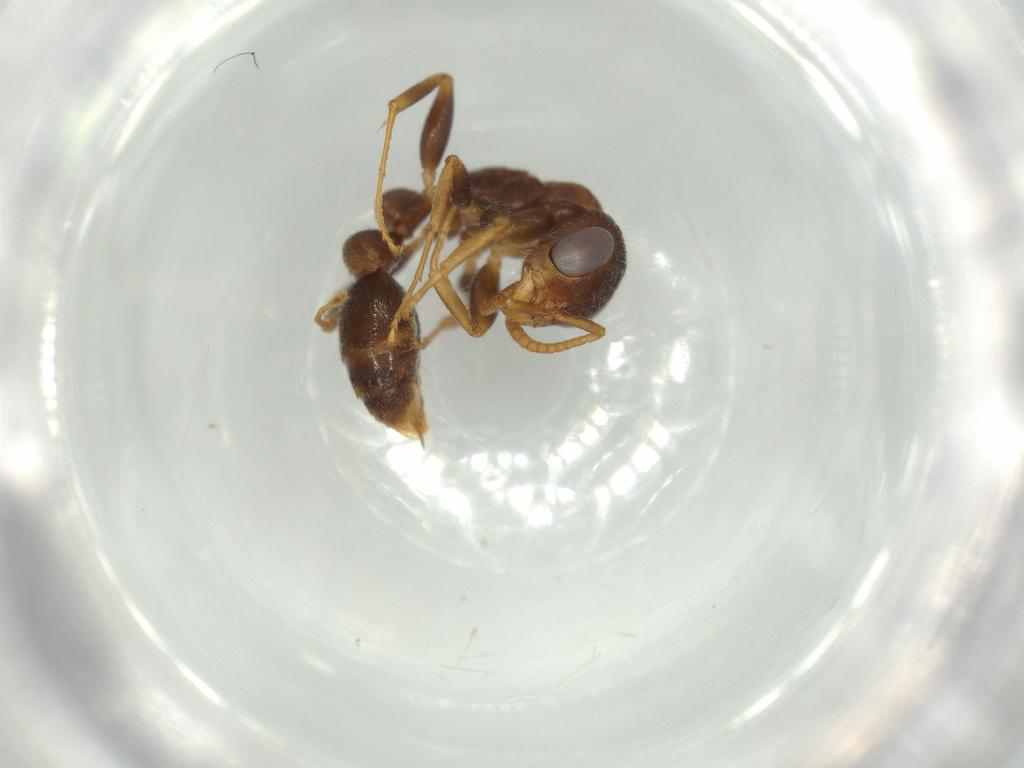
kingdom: Animalia
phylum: Arthropoda
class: Insecta
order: Hymenoptera
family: Formicidae
